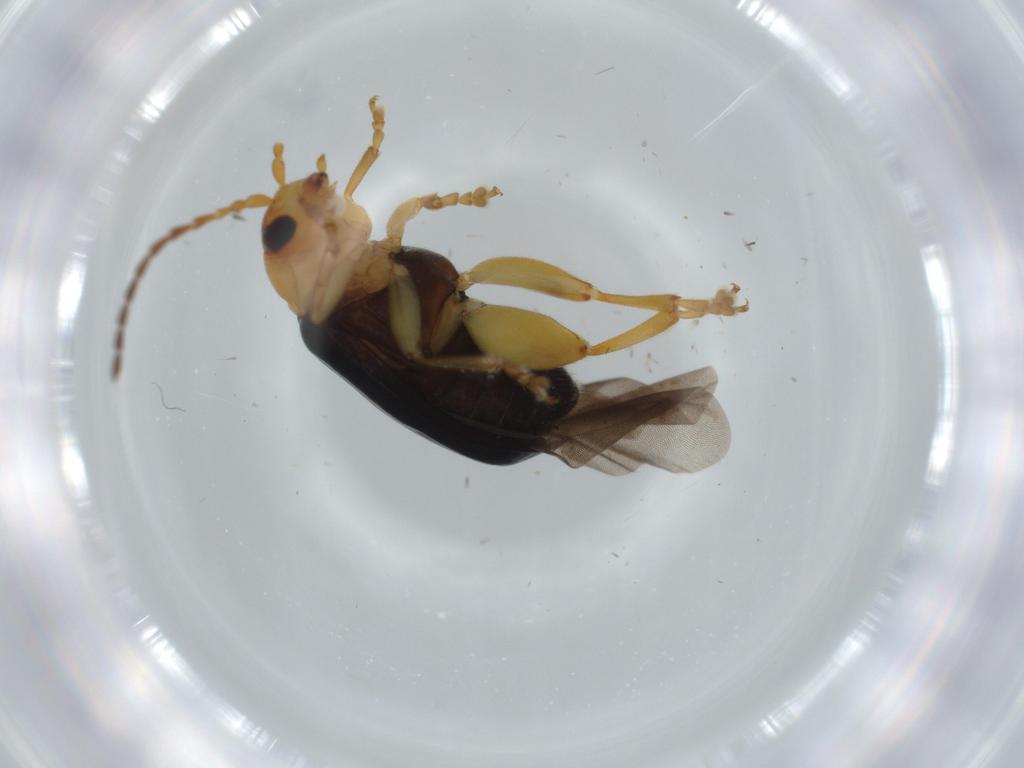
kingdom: Animalia
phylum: Arthropoda
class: Insecta
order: Coleoptera
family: Chrysomelidae
